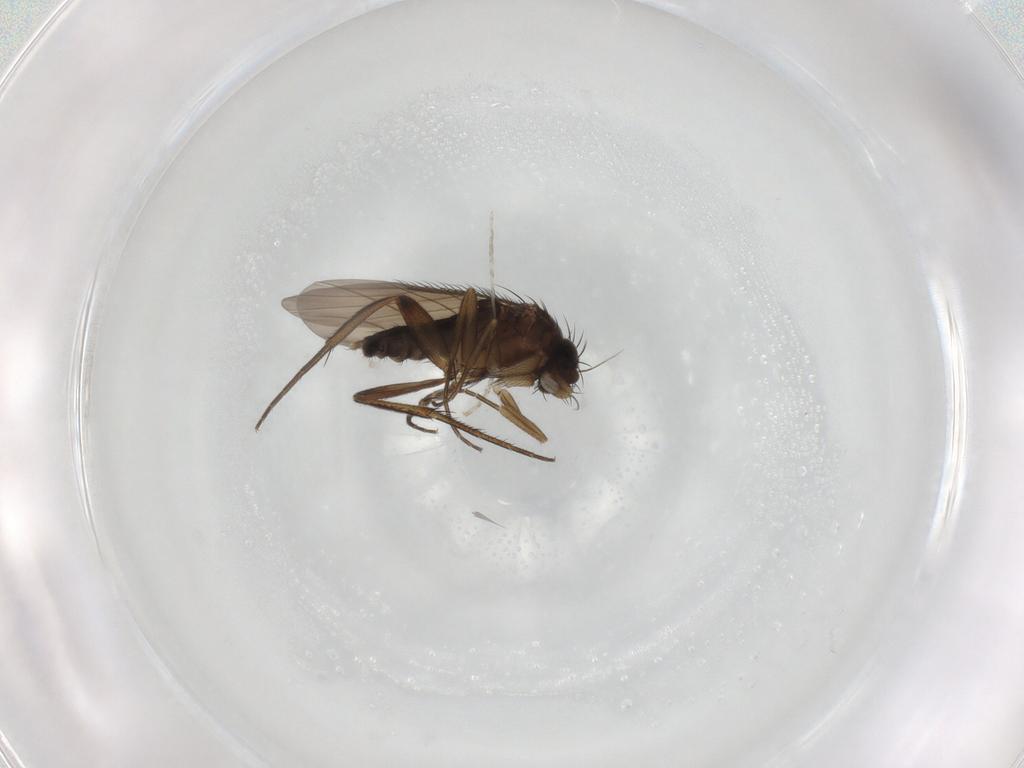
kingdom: Animalia
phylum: Arthropoda
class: Insecta
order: Diptera
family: Phoridae
